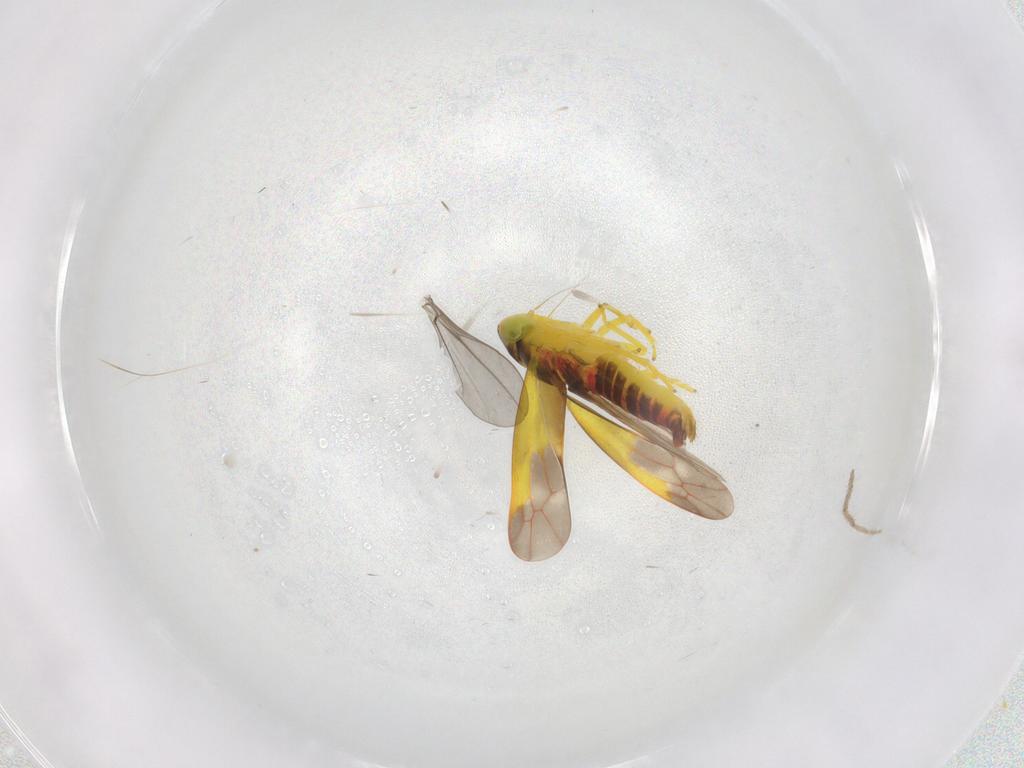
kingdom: Animalia
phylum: Arthropoda
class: Insecta
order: Hemiptera
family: Cicadellidae
